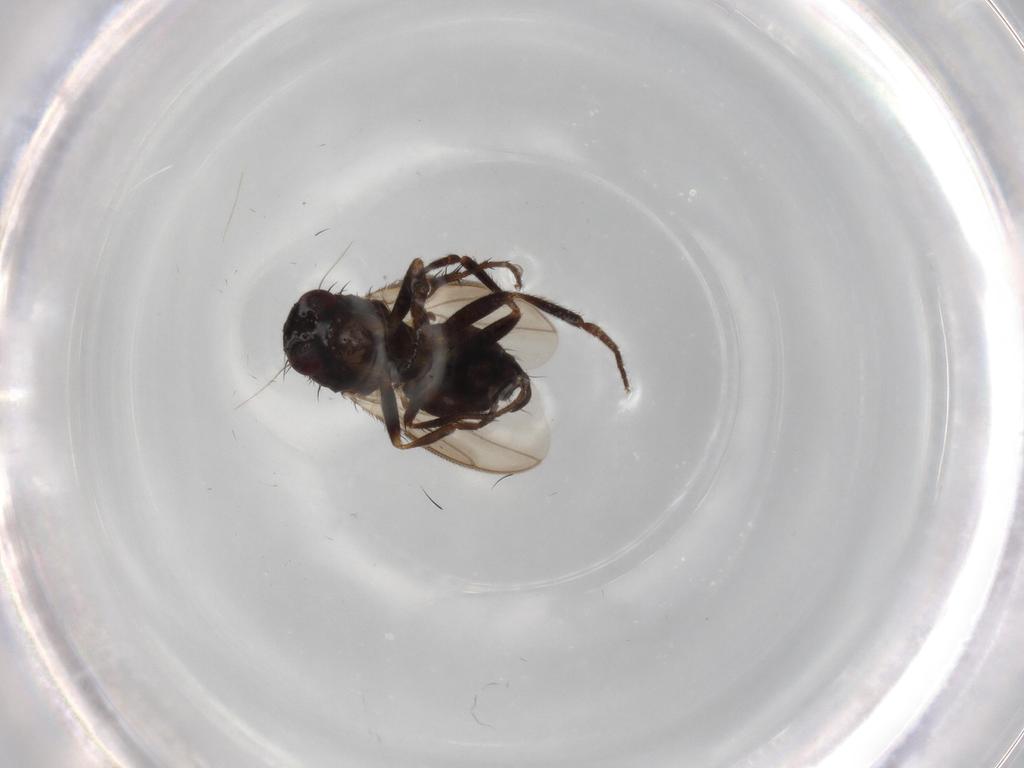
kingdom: Animalia
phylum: Arthropoda
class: Insecta
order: Diptera
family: Sphaeroceridae
